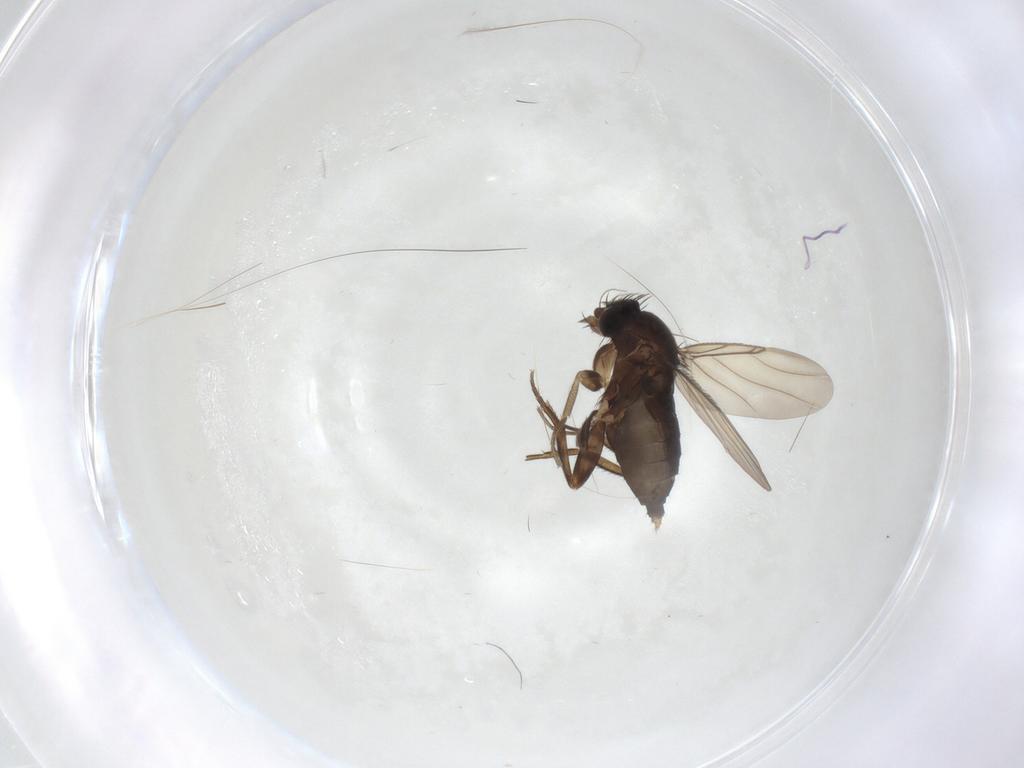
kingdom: Animalia
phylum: Arthropoda
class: Insecta
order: Diptera
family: Phoridae
